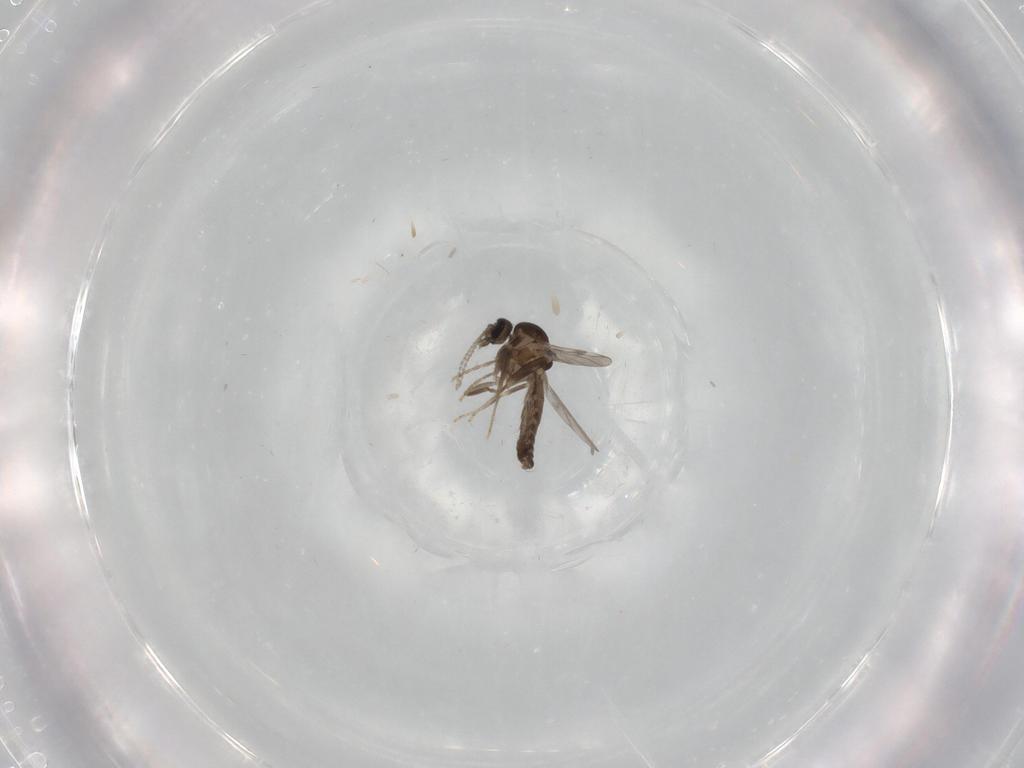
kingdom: Animalia
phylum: Arthropoda
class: Insecta
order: Diptera
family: Ceratopogonidae
